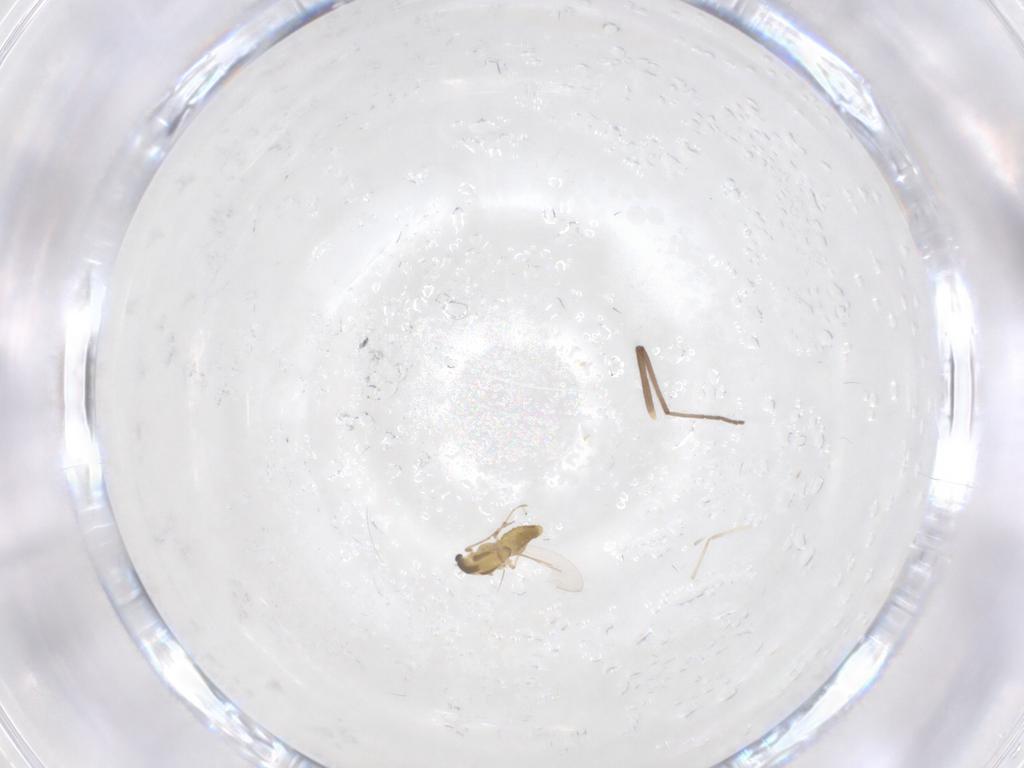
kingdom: Animalia
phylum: Arthropoda
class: Insecta
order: Diptera
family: Chironomidae
